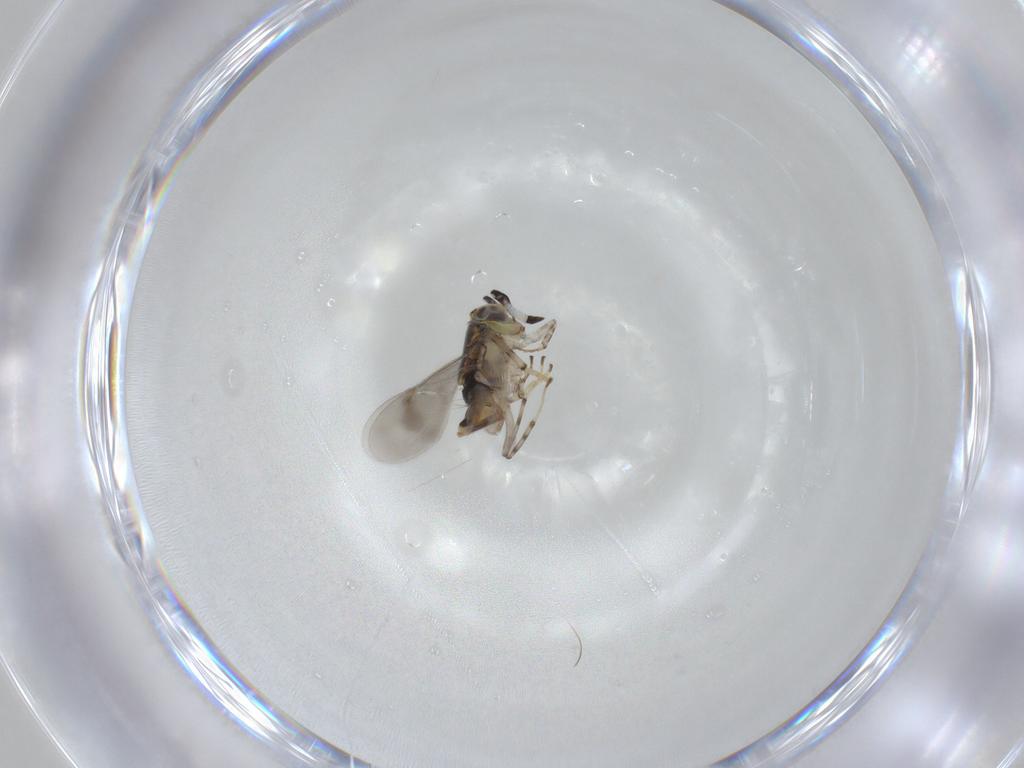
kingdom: Animalia
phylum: Arthropoda
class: Insecta
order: Hymenoptera
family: Encyrtidae
